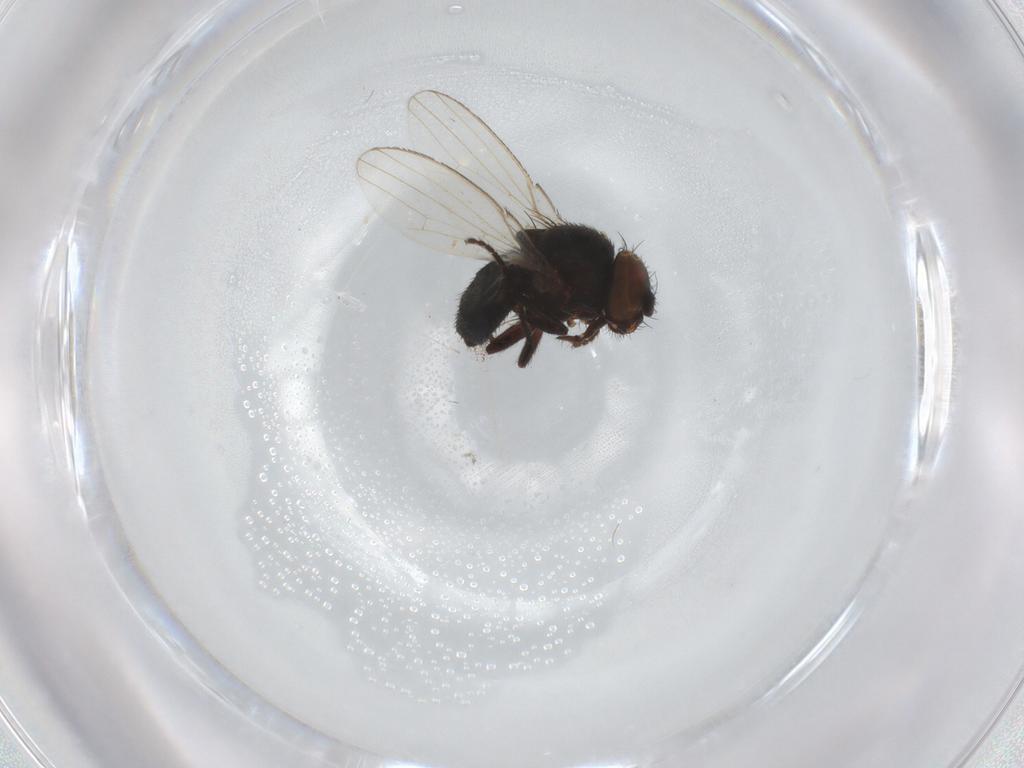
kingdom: Animalia
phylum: Arthropoda
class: Insecta
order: Diptera
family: Milichiidae
